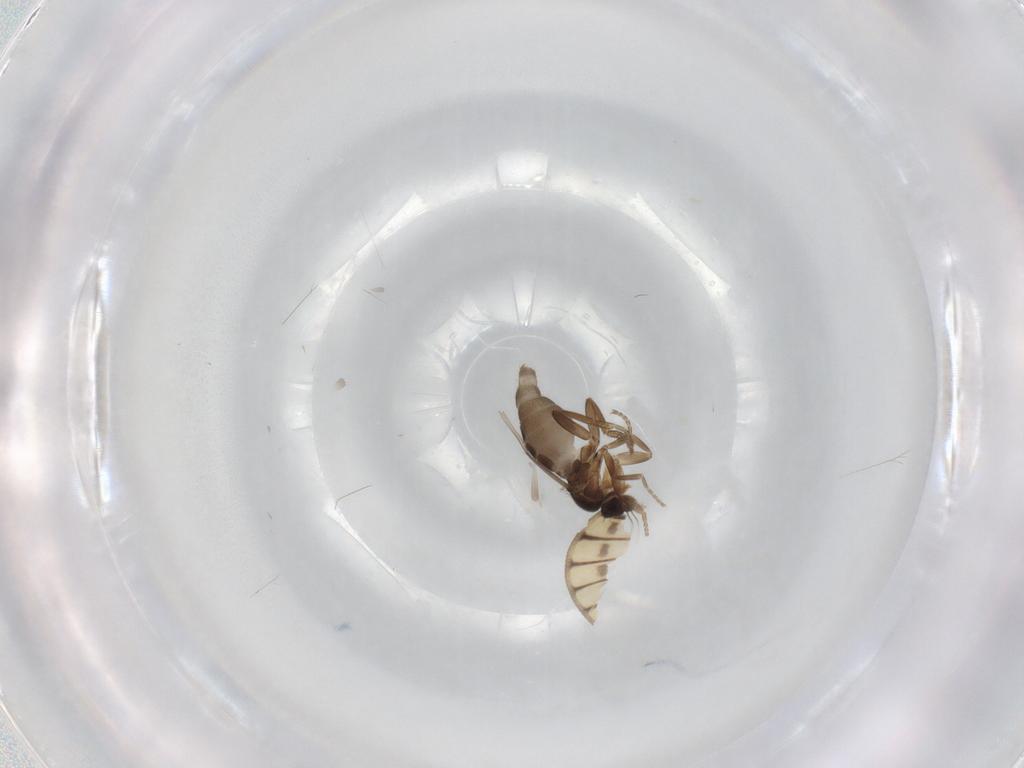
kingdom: Animalia
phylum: Arthropoda
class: Insecta
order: Diptera
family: Phoridae
